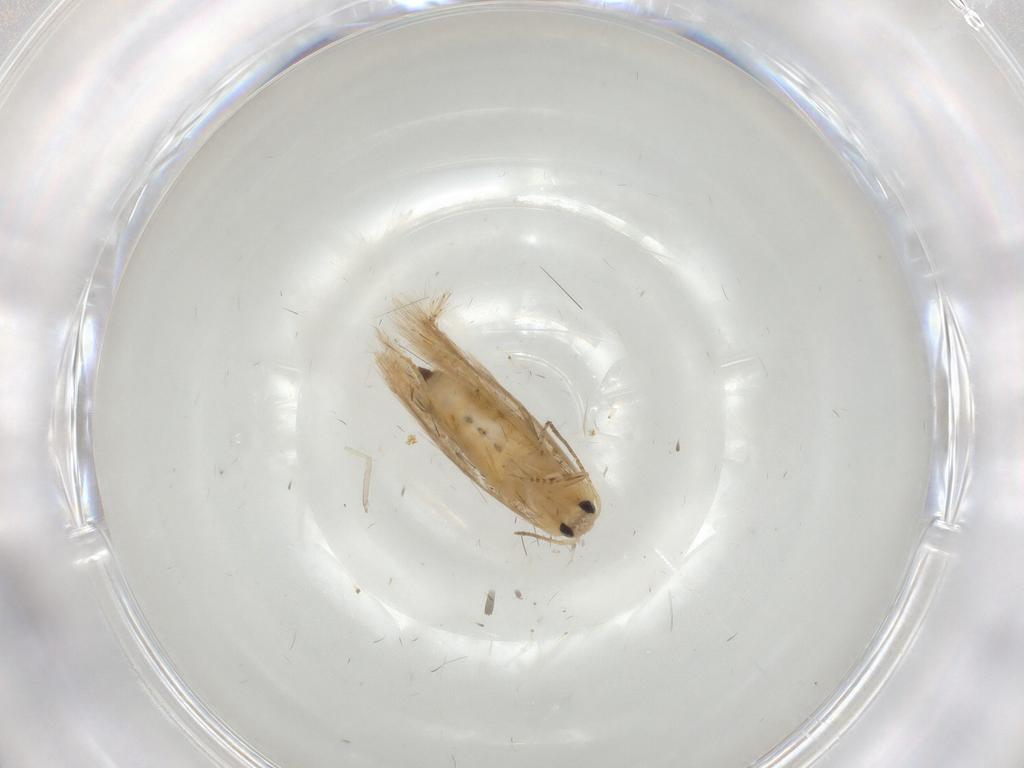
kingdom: Animalia
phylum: Arthropoda
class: Insecta
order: Lepidoptera
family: Depressariidae
